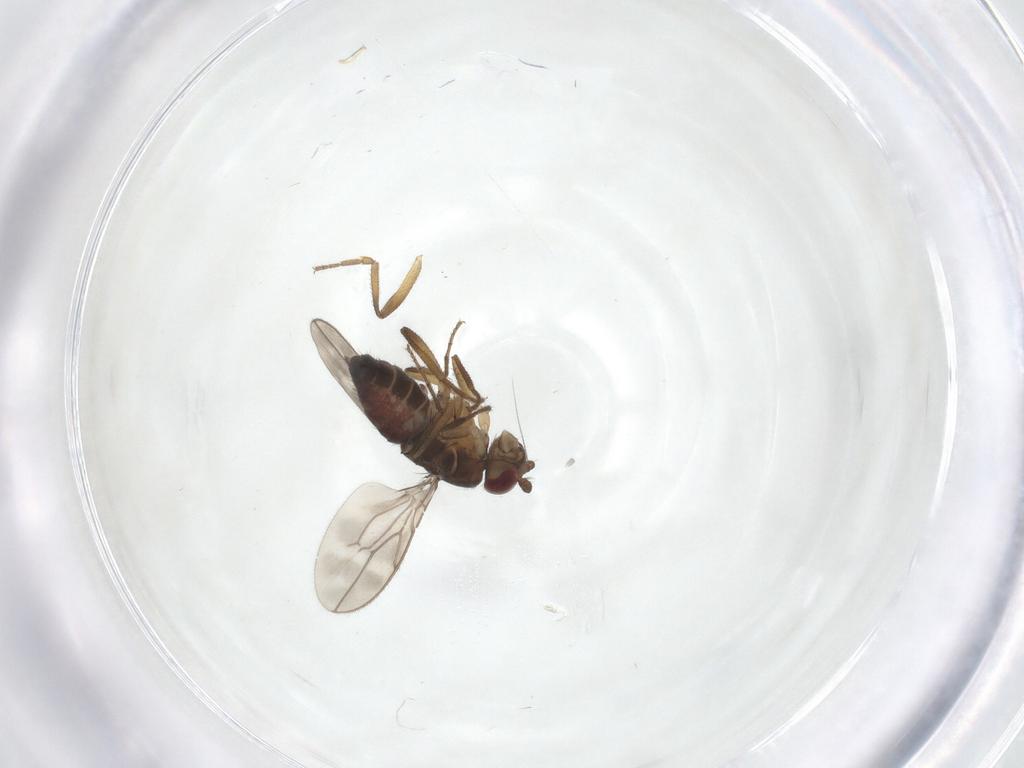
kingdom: Animalia
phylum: Arthropoda
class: Insecta
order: Diptera
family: Sphaeroceridae
